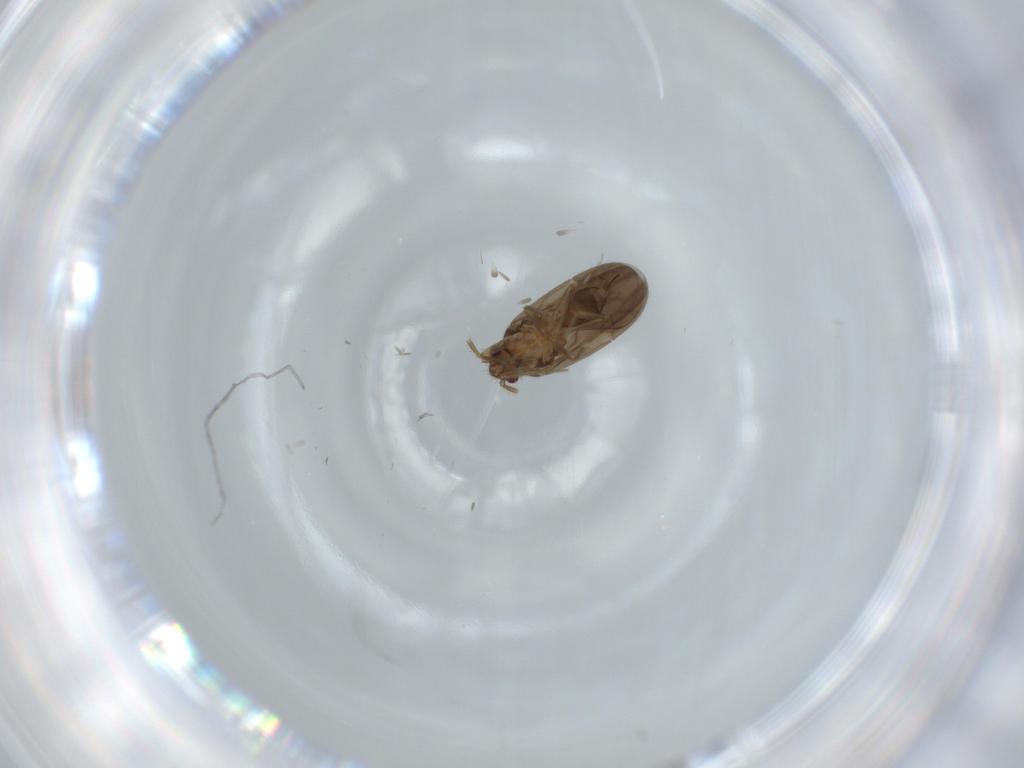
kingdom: Animalia
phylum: Arthropoda
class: Insecta
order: Hemiptera
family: Ceratocombidae
